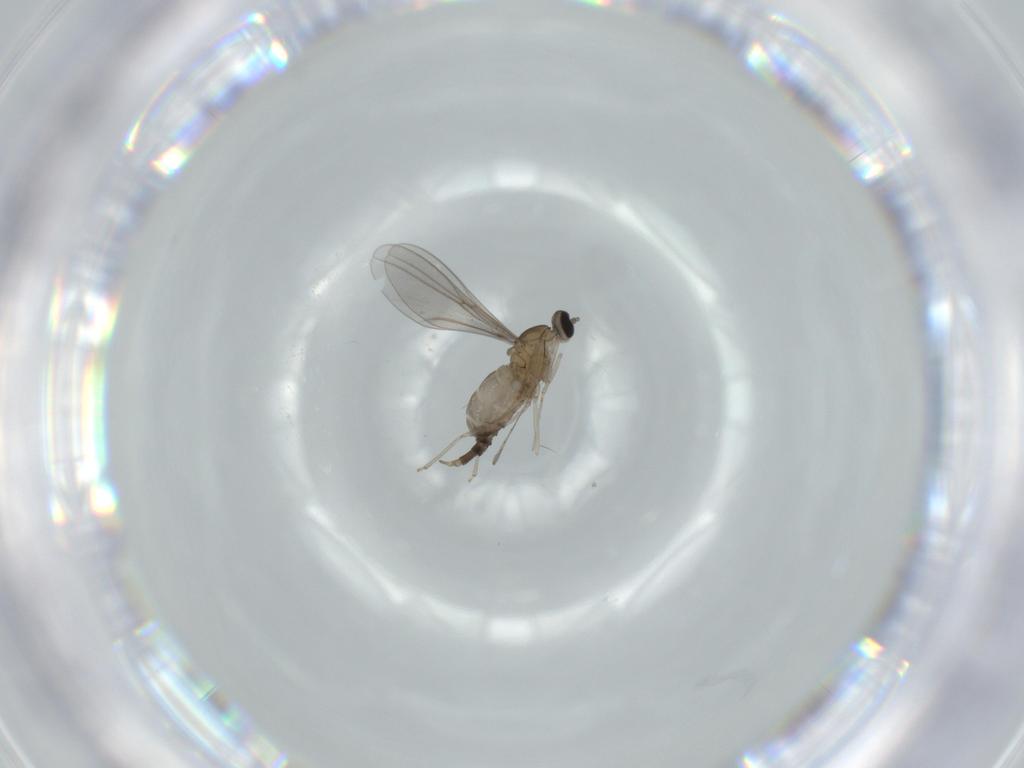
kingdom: Animalia
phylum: Arthropoda
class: Insecta
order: Diptera
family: Cecidomyiidae
